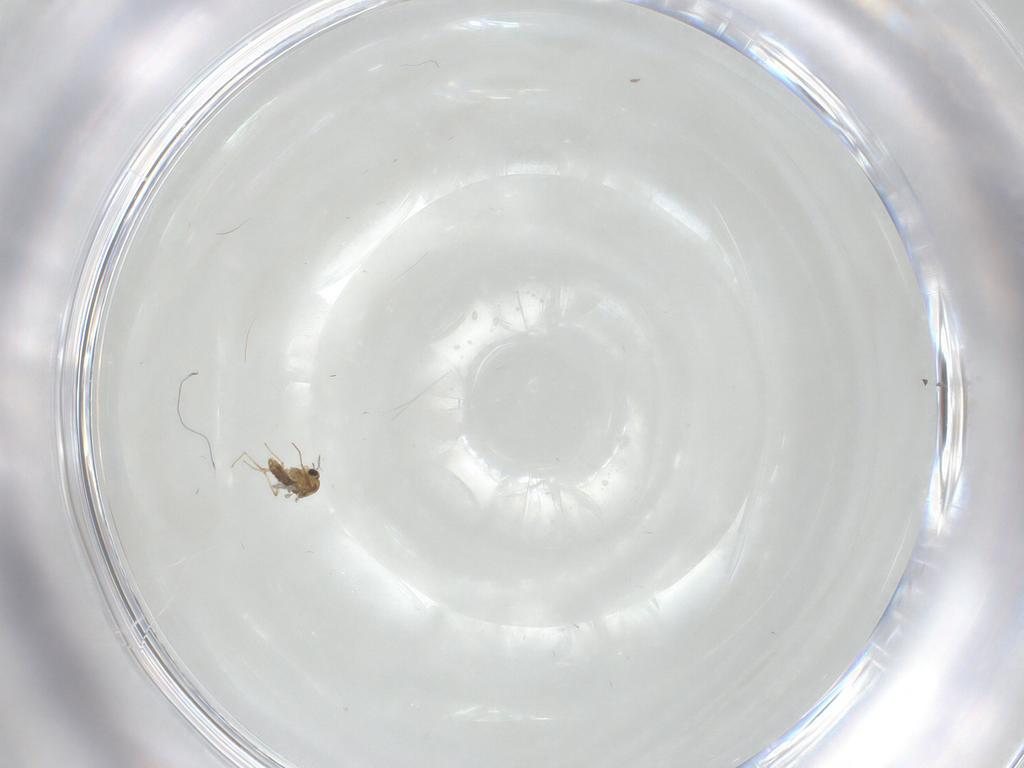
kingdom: Animalia
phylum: Arthropoda
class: Insecta
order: Diptera
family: Chironomidae
